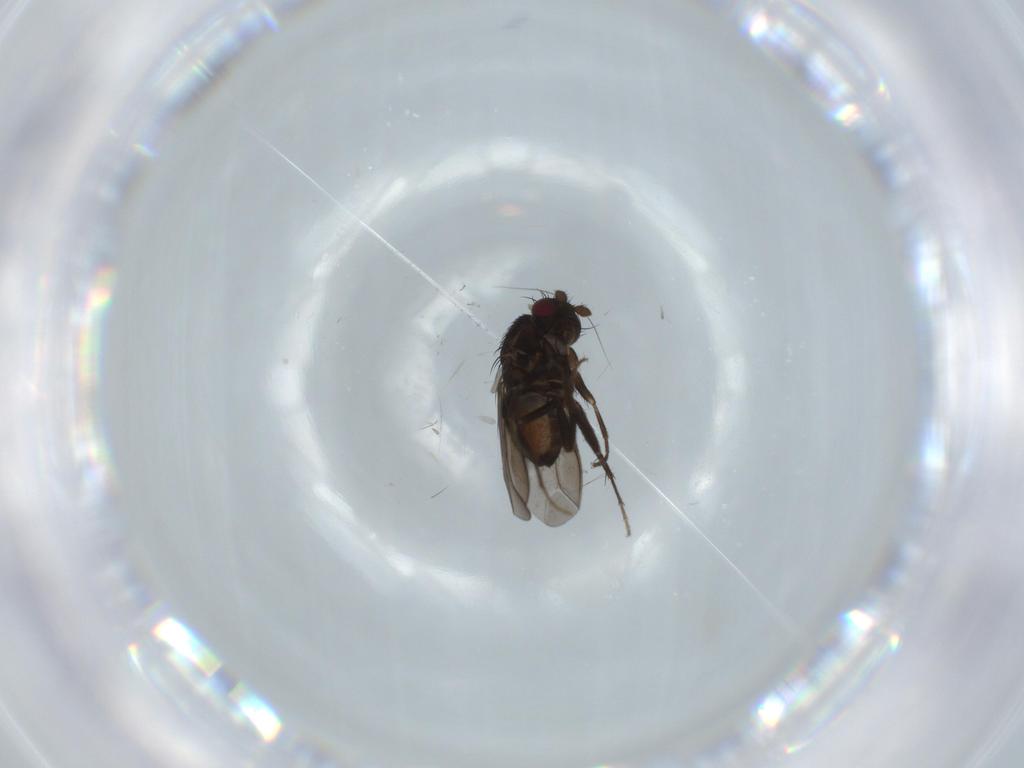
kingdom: Animalia
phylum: Arthropoda
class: Insecta
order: Diptera
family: Sphaeroceridae
